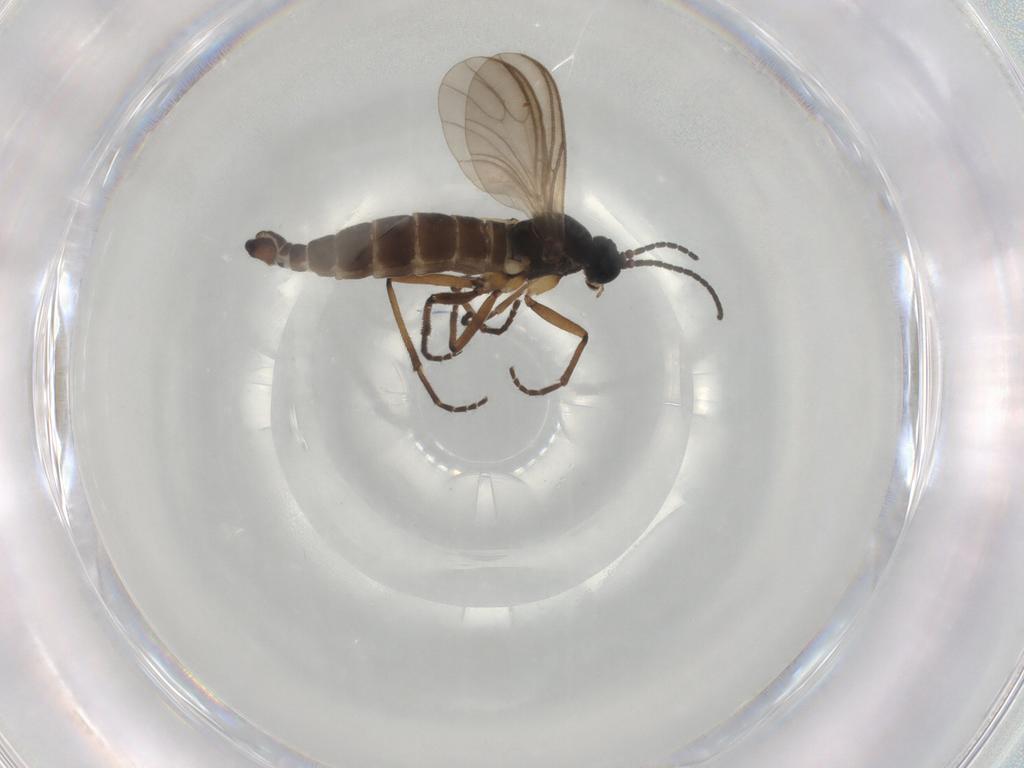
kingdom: Animalia
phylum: Arthropoda
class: Insecta
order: Diptera
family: Sciaridae
